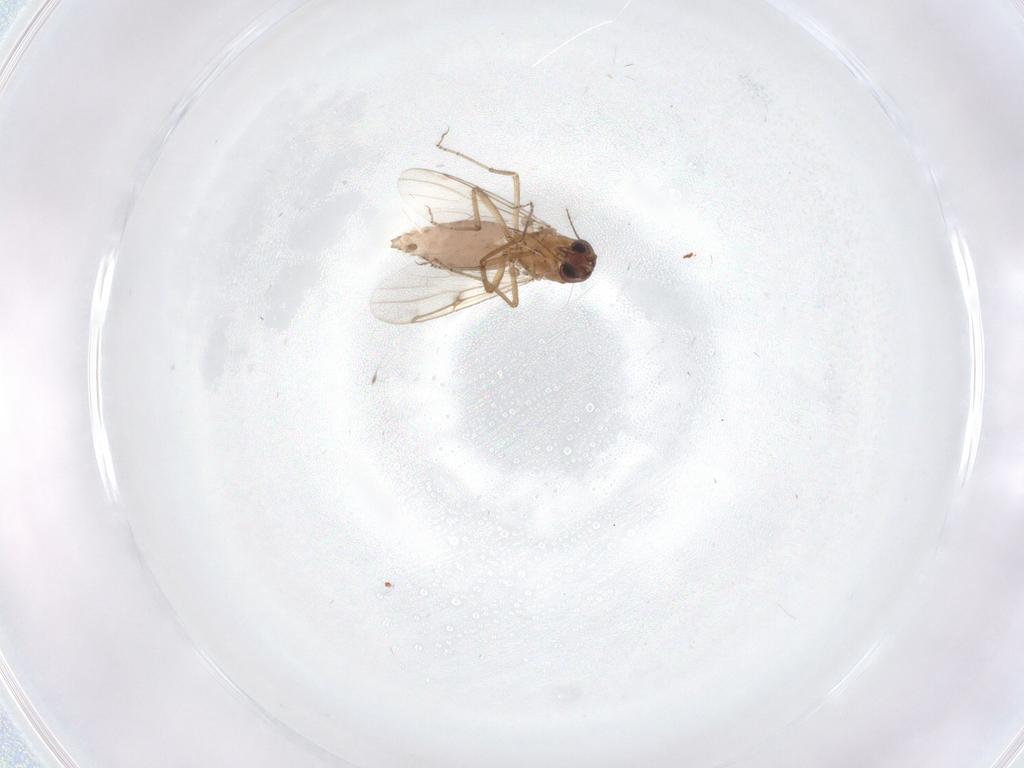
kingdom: Animalia
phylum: Arthropoda
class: Insecta
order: Diptera
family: Ceratopogonidae
